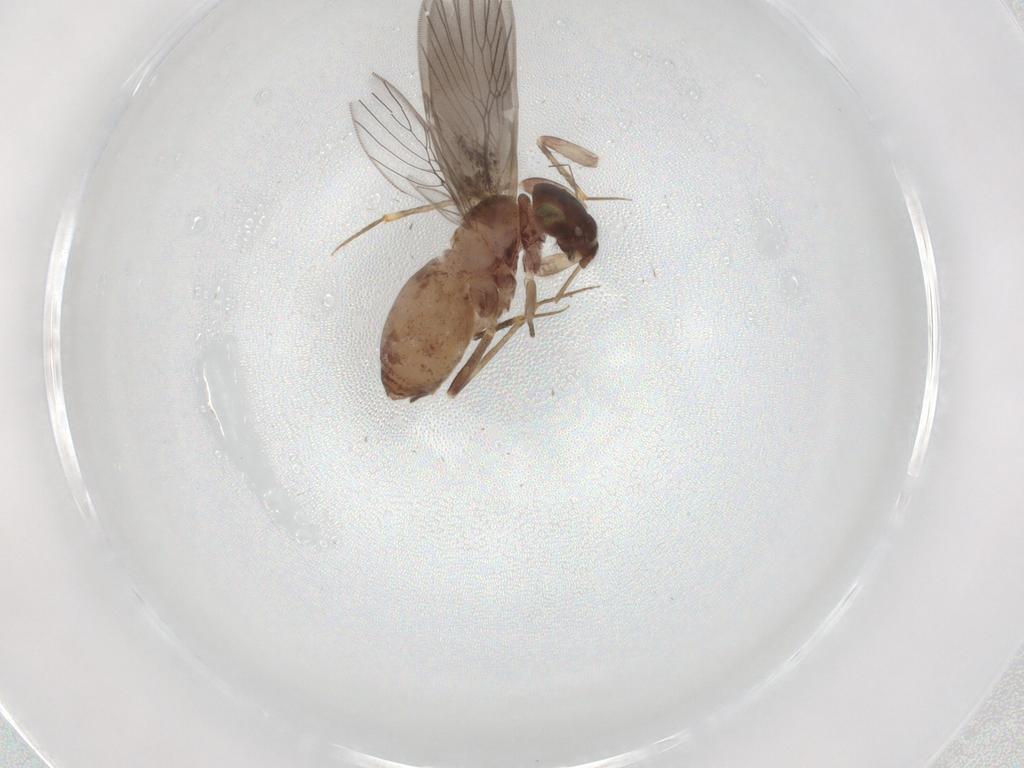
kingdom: Animalia
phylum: Arthropoda
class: Insecta
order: Psocodea
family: Lepidopsocidae
